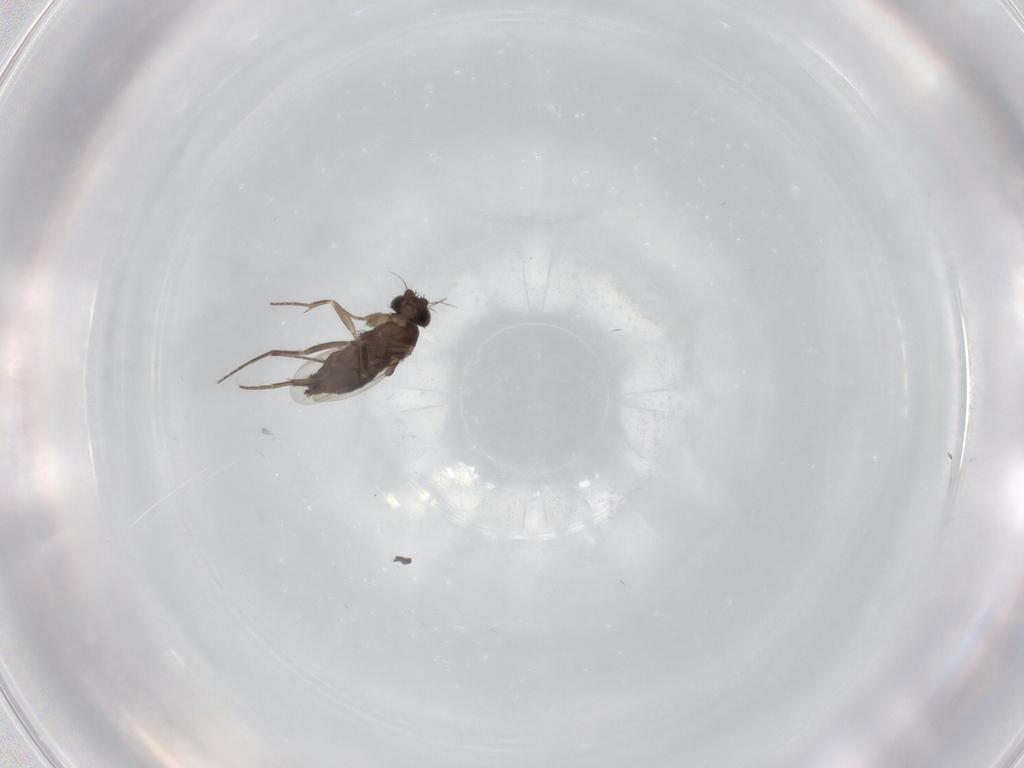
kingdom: Animalia
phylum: Arthropoda
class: Insecta
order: Diptera
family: Phoridae
